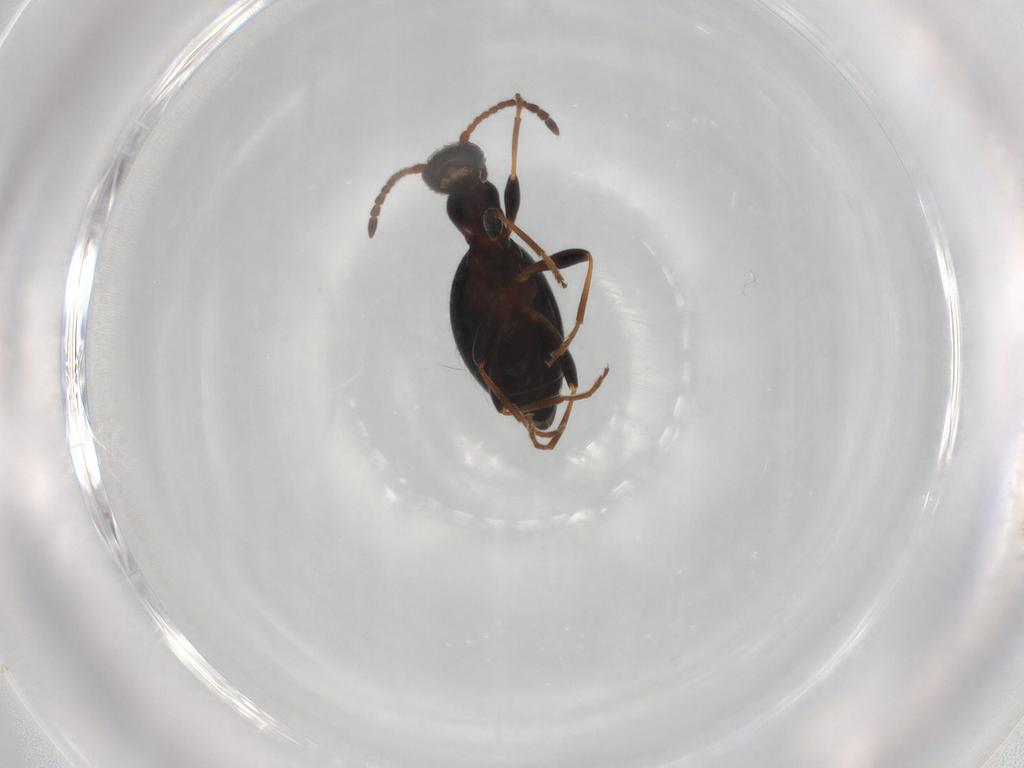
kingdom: Animalia
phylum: Arthropoda
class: Insecta
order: Coleoptera
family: Anthicidae
